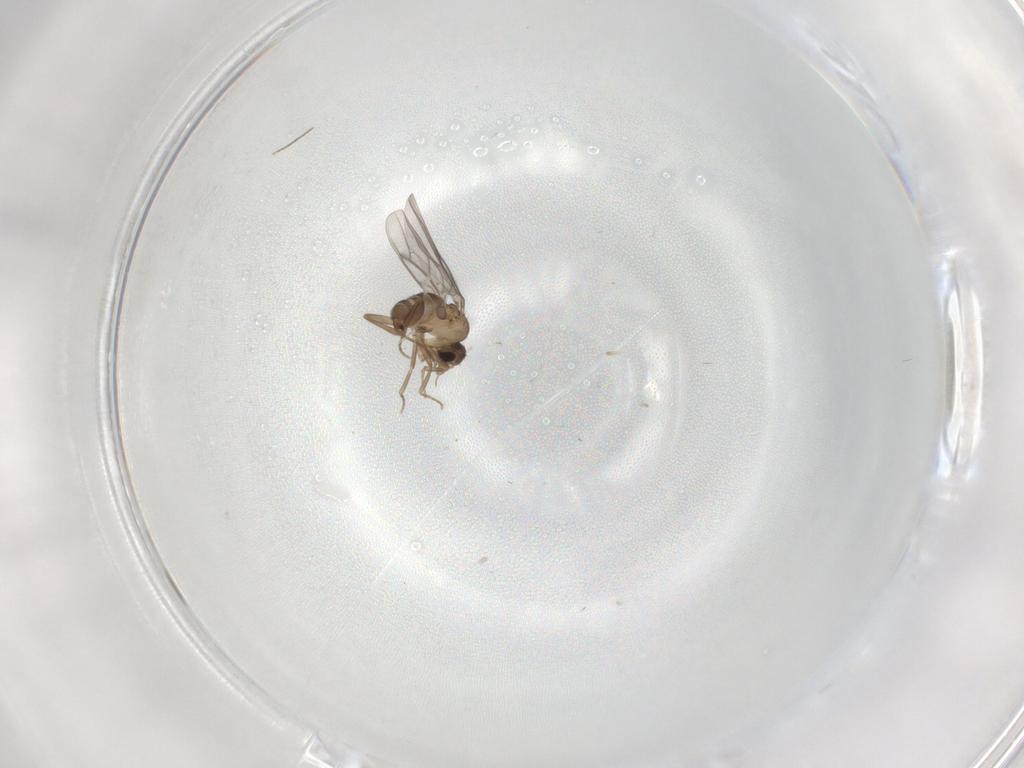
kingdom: Animalia
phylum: Arthropoda
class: Insecta
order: Diptera
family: Chironomidae
